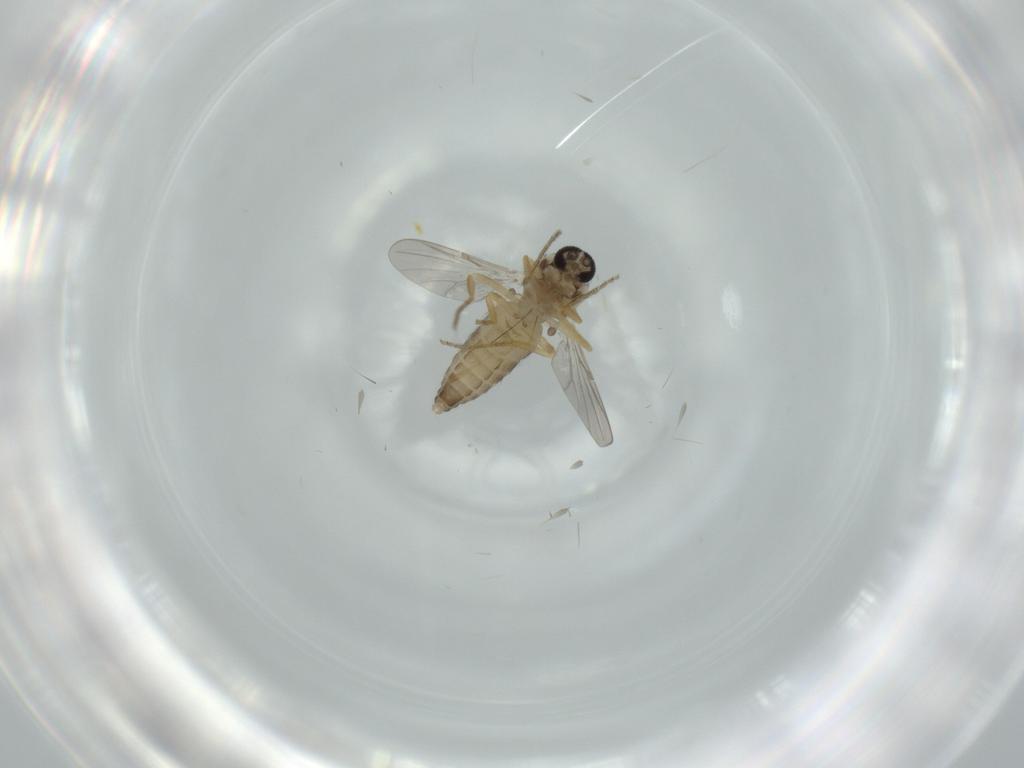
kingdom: Animalia
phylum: Arthropoda
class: Insecta
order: Diptera
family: Ceratopogonidae
